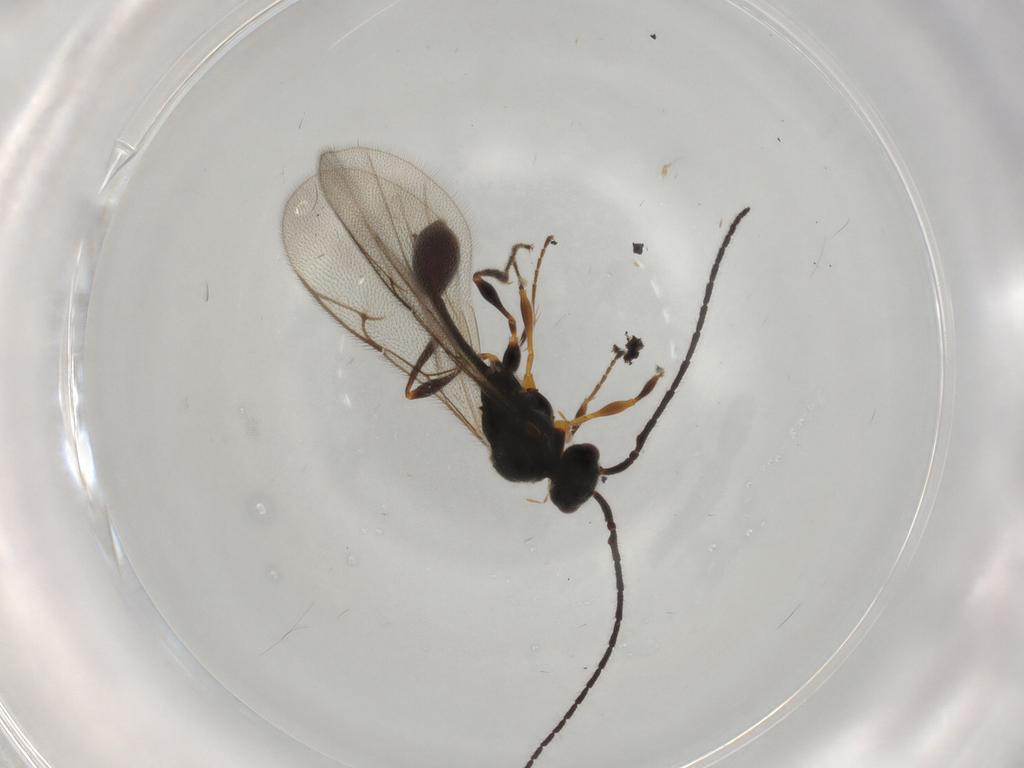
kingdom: Animalia
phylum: Arthropoda
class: Insecta
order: Hymenoptera
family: Diapriidae
